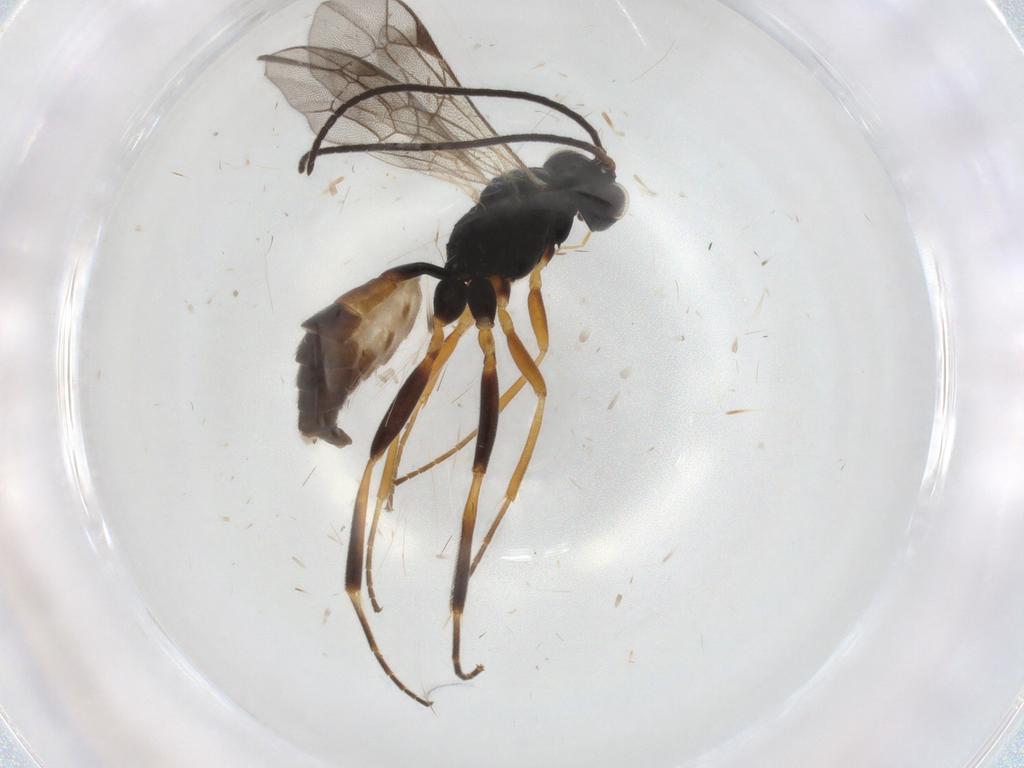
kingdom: Animalia
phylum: Arthropoda
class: Insecta
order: Hymenoptera
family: Ichneumonidae
